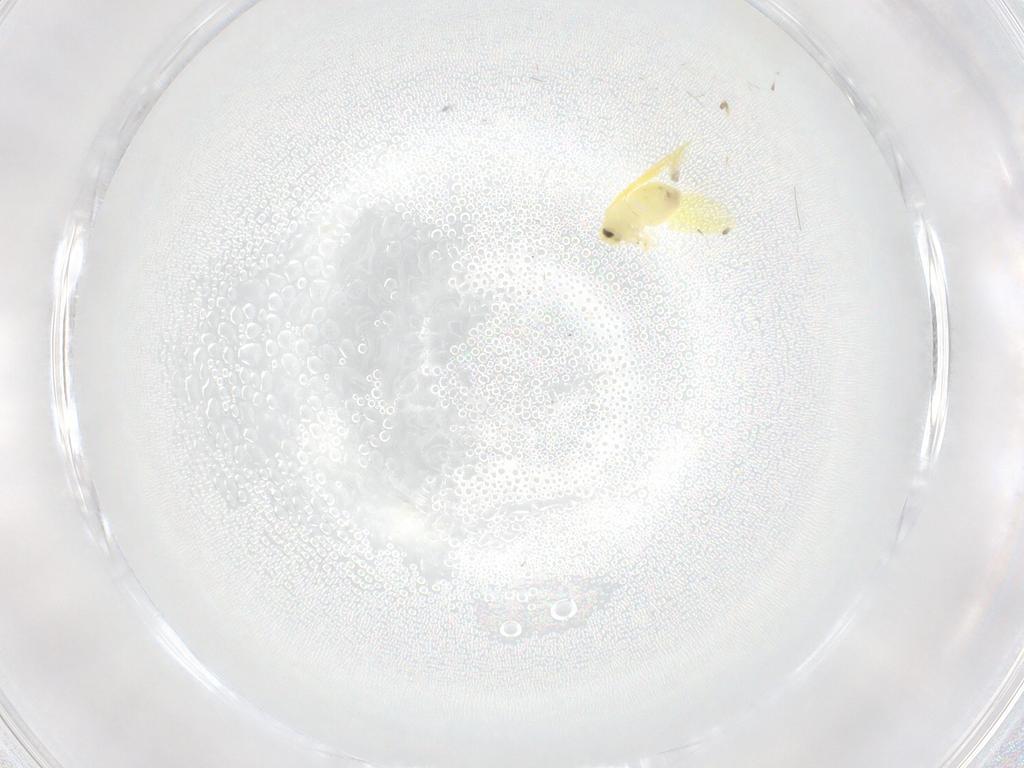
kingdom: Animalia
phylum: Arthropoda
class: Insecta
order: Hemiptera
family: Aleyrodidae
